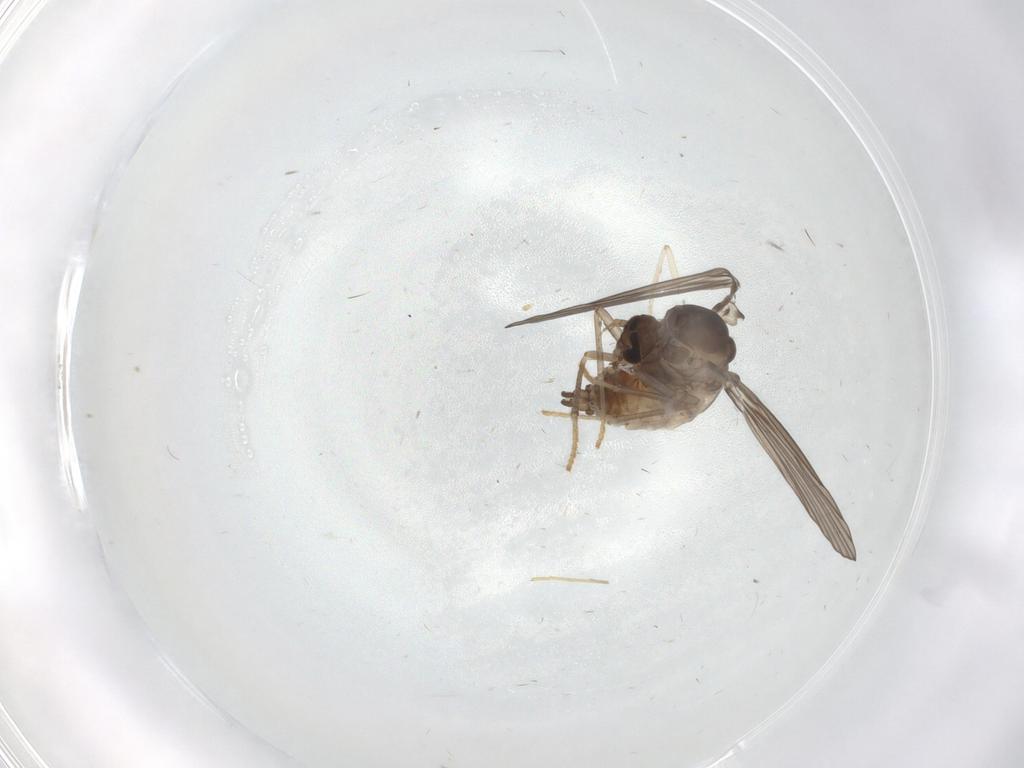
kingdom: Animalia
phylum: Arthropoda
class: Insecta
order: Diptera
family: Psychodidae
